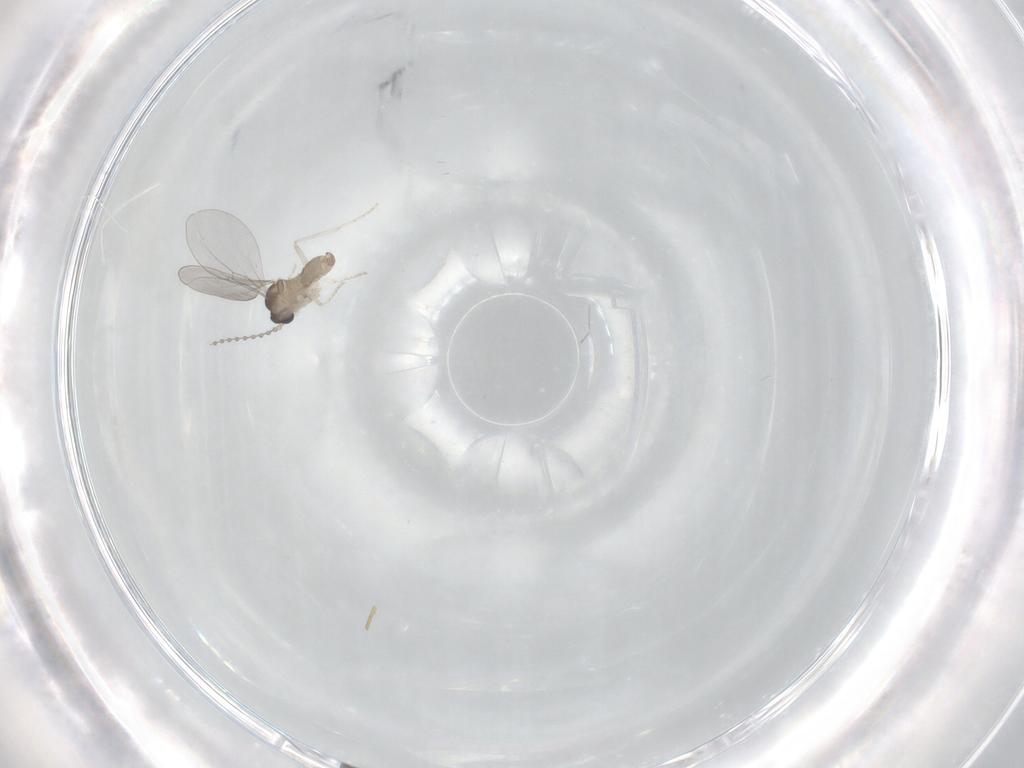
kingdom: Animalia
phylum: Arthropoda
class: Insecta
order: Diptera
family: Cecidomyiidae
